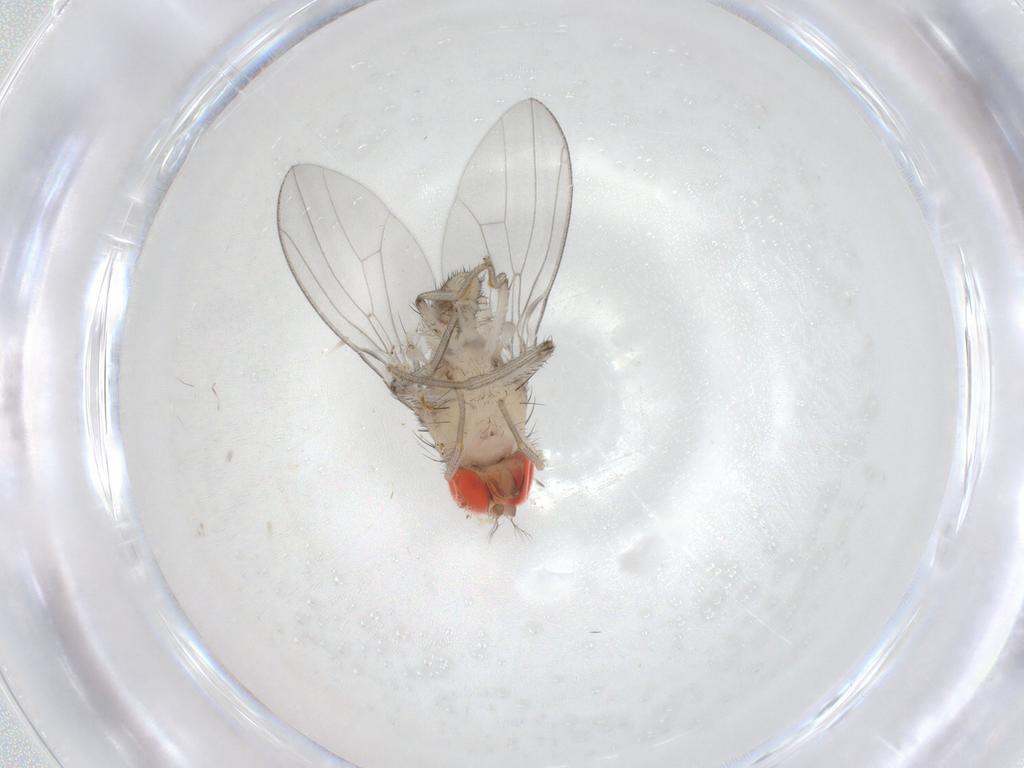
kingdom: Animalia
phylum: Arthropoda
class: Insecta
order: Diptera
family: Drosophilidae
